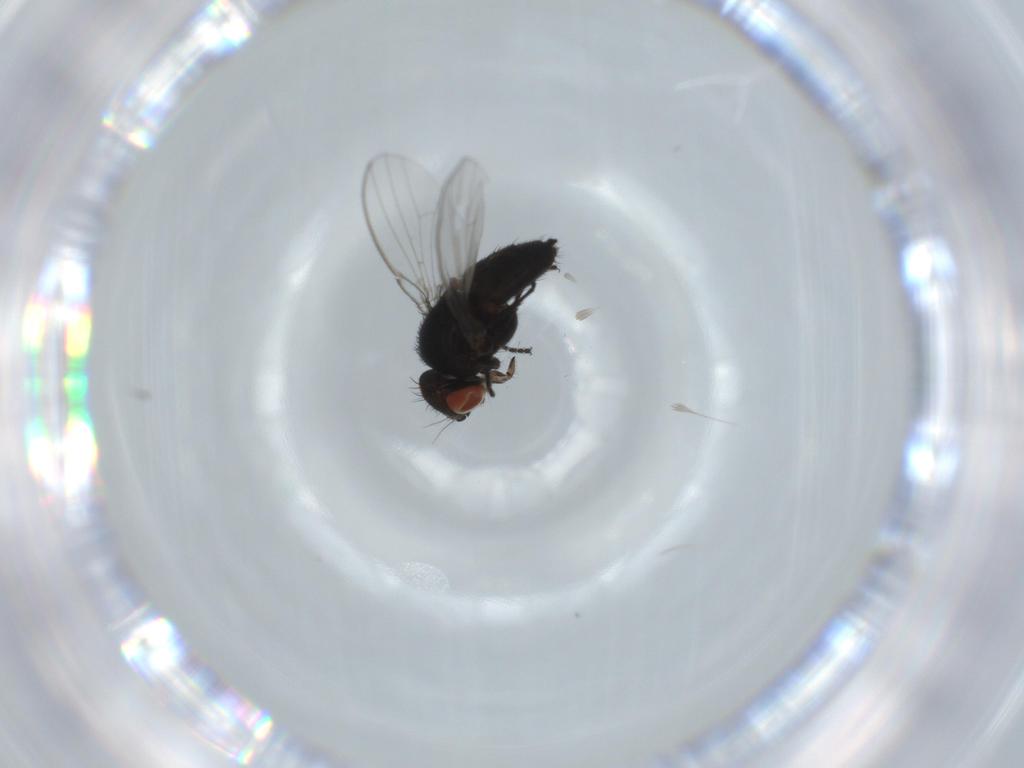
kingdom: Animalia
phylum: Arthropoda
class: Insecta
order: Diptera
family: Milichiidae
